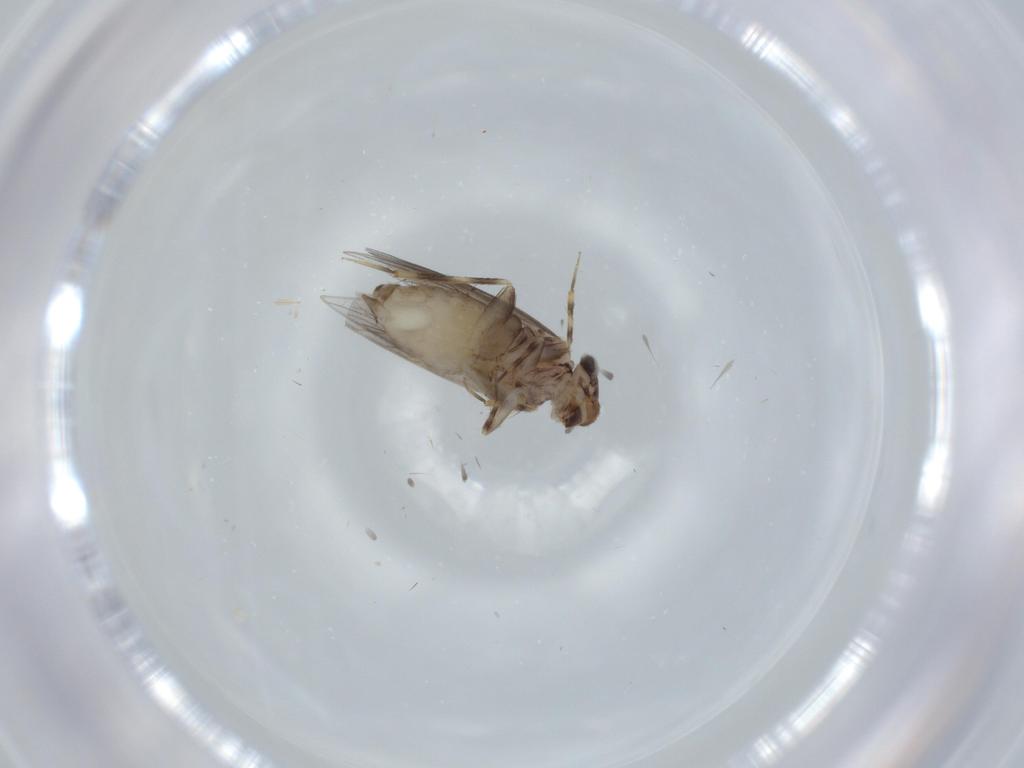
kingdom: Animalia
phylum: Arthropoda
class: Insecta
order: Psocodea
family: Lepidopsocidae
